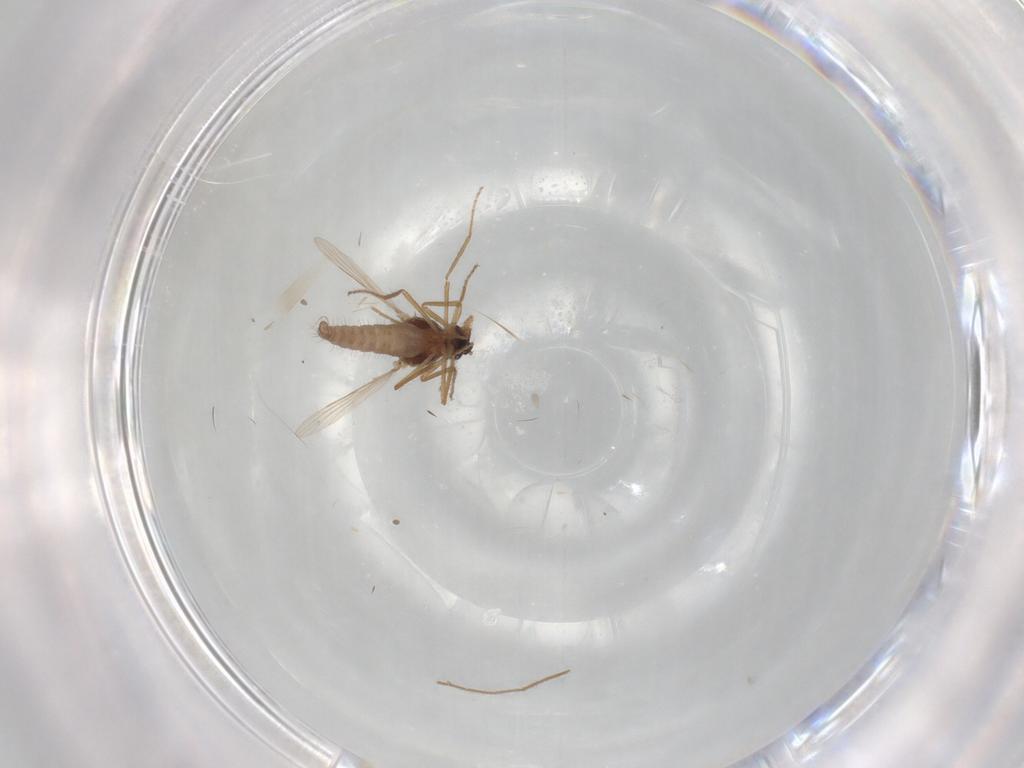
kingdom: Animalia
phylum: Arthropoda
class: Insecta
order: Diptera
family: Ceratopogonidae
